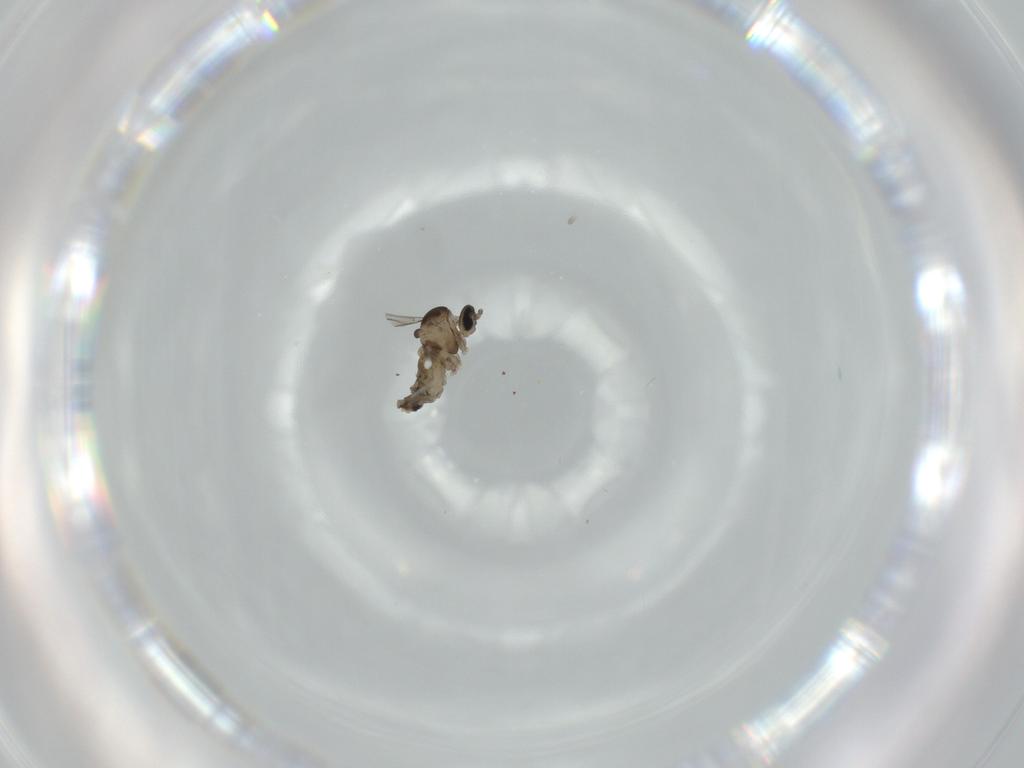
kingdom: Animalia
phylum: Arthropoda
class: Insecta
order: Diptera
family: Cecidomyiidae
